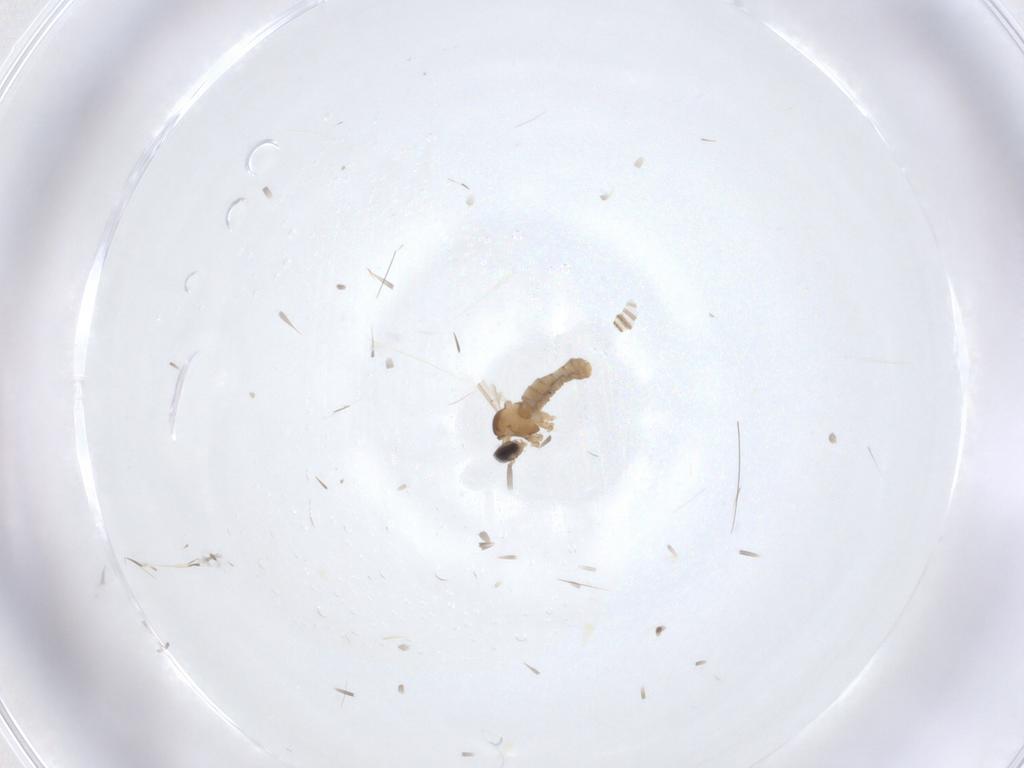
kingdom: Animalia
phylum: Arthropoda
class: Insecta
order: Diptera
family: Cecidomyiidae
